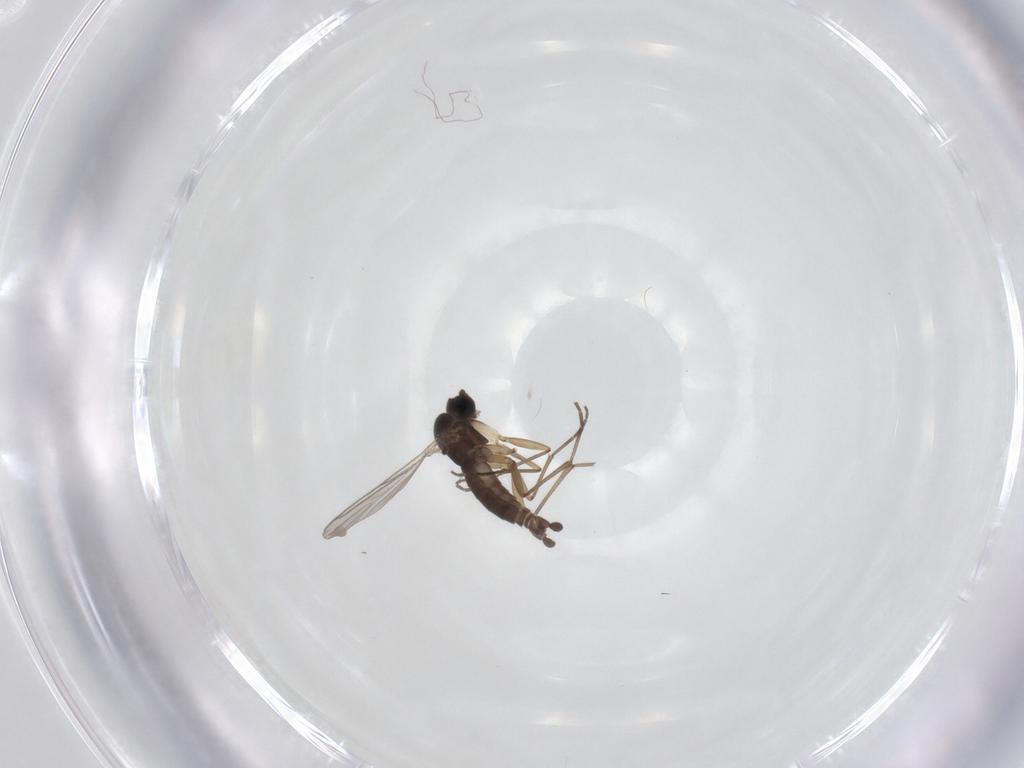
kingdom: Animalia
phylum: Arthropoda
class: Insecta
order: Diptera
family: Sciaridae
